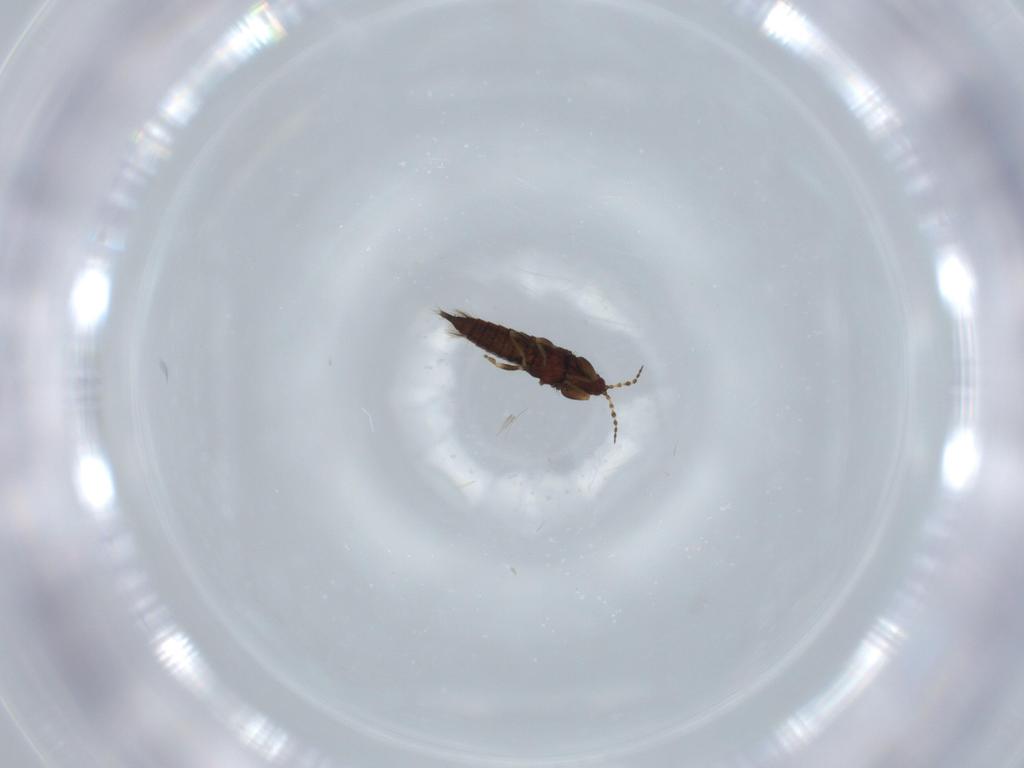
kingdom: Animalia
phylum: Arthropoda
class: Insecta
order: Thysanoptera
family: Phlaeothripidae
